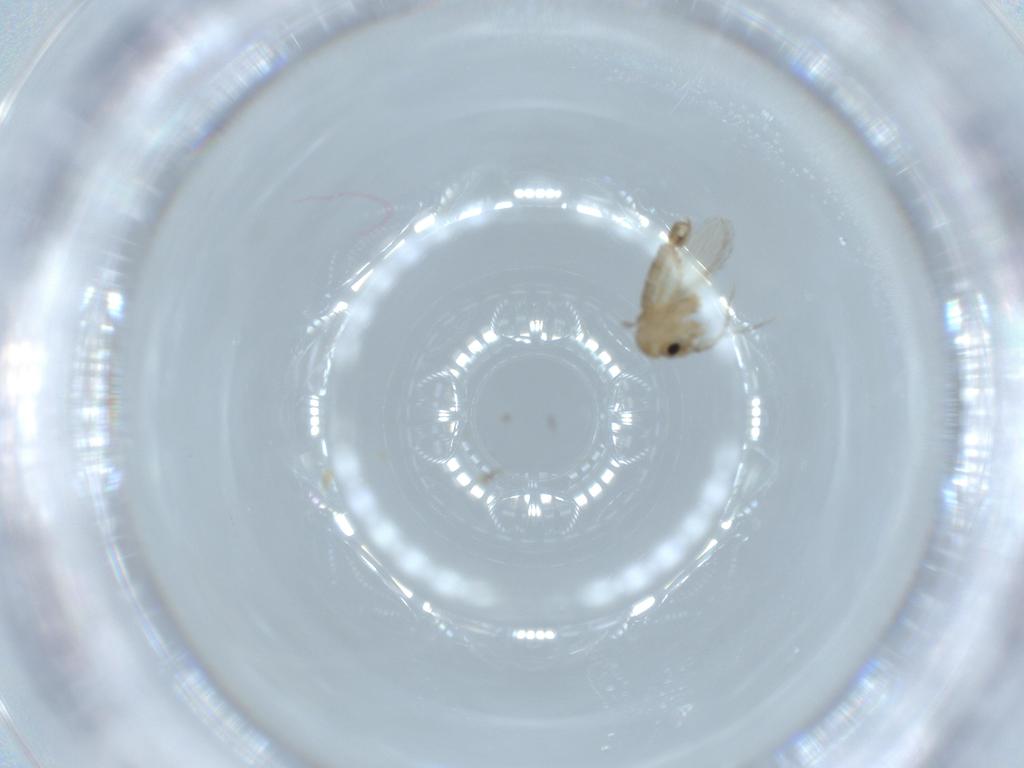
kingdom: Animalia
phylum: Arthropoda
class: Insecta
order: Diptera
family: Psychodidae
